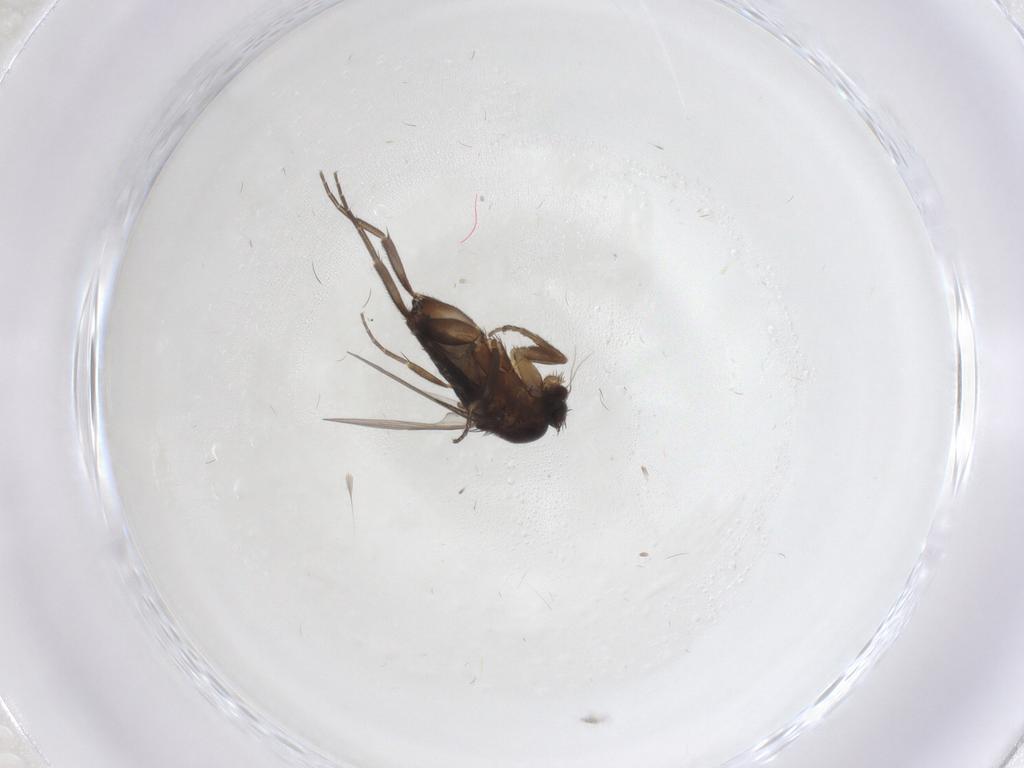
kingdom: Animalia
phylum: Arthropoda
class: Insecta
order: Diptera
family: Phoridae
